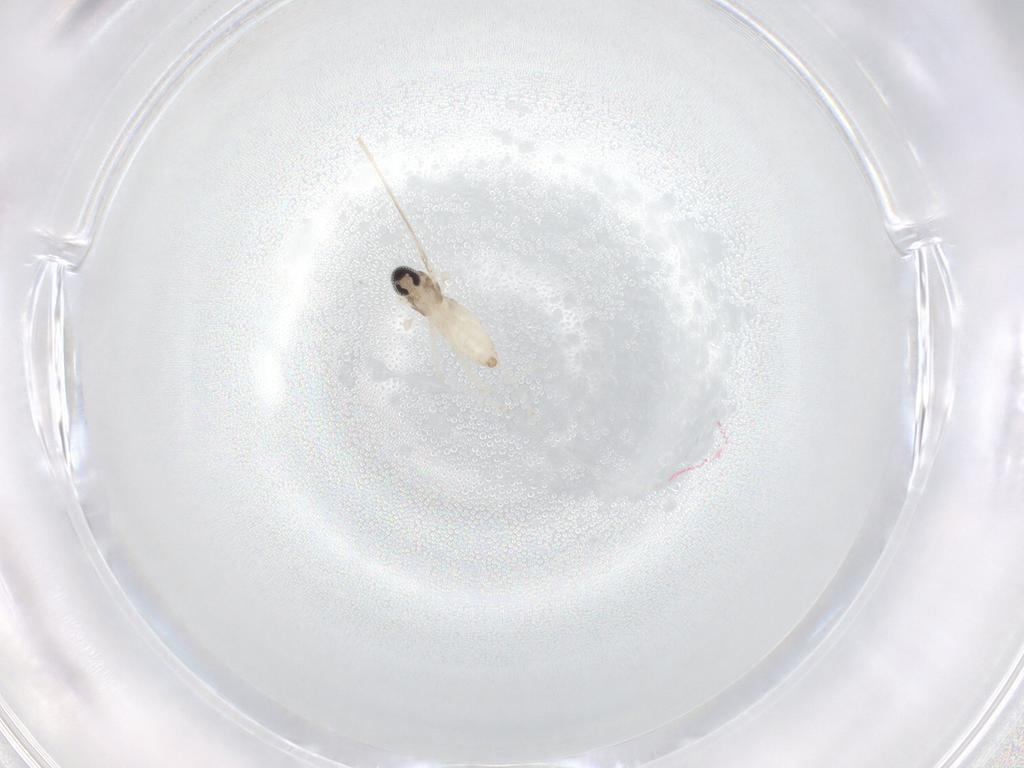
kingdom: Animalia
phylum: Arthropoda
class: Insecta
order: Diptera
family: Cecidomyiidae
